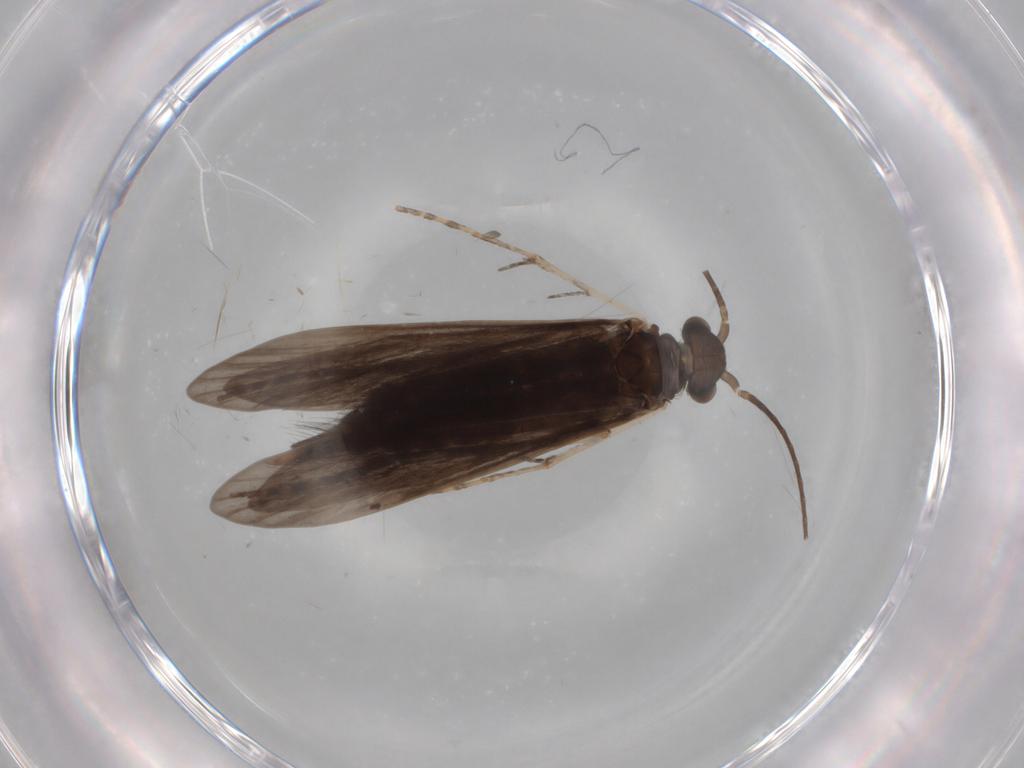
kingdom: Animalia
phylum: Arthropoda
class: Insecta
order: Trichoptera
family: Xiphocentronidae
